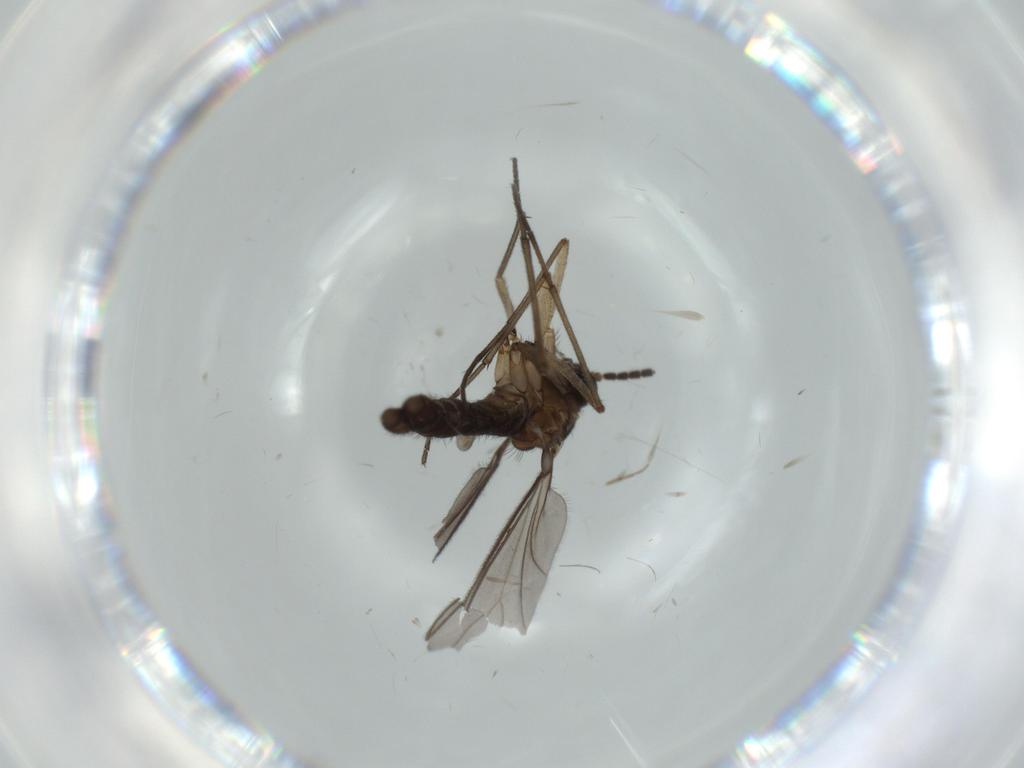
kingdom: Animalia
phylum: Arthropoda
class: Insecta
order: Diptera
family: Sciaridae
